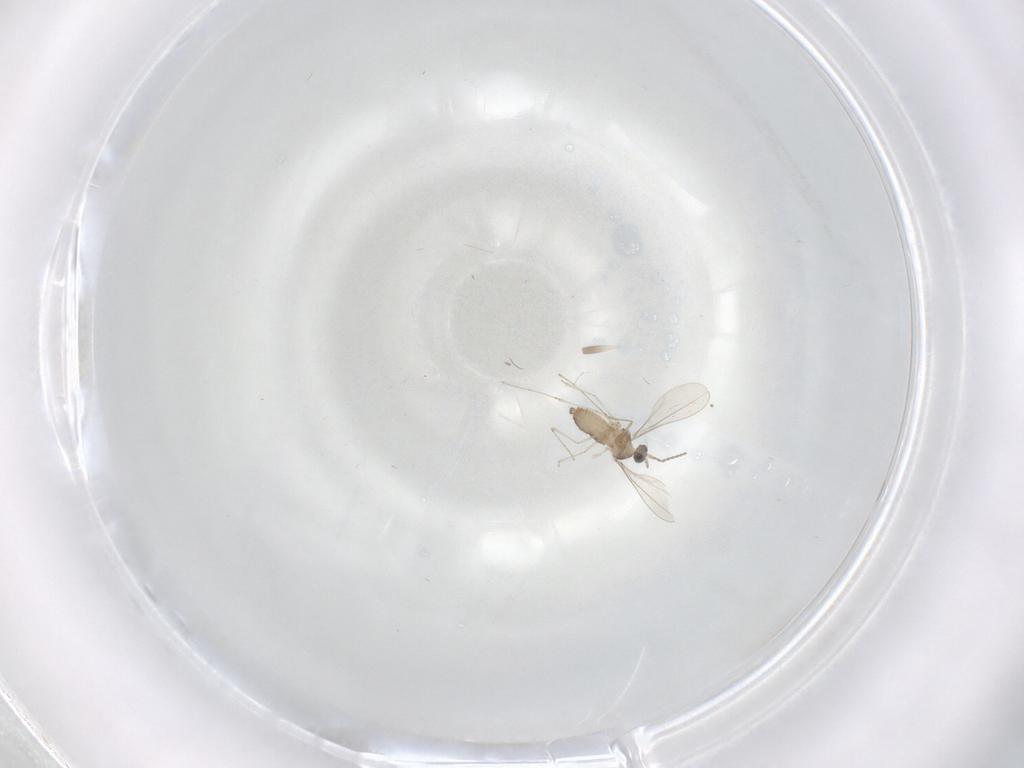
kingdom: Animalia
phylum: Arthropoda
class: Insecta
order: Diptera
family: Cecidomyiidae
